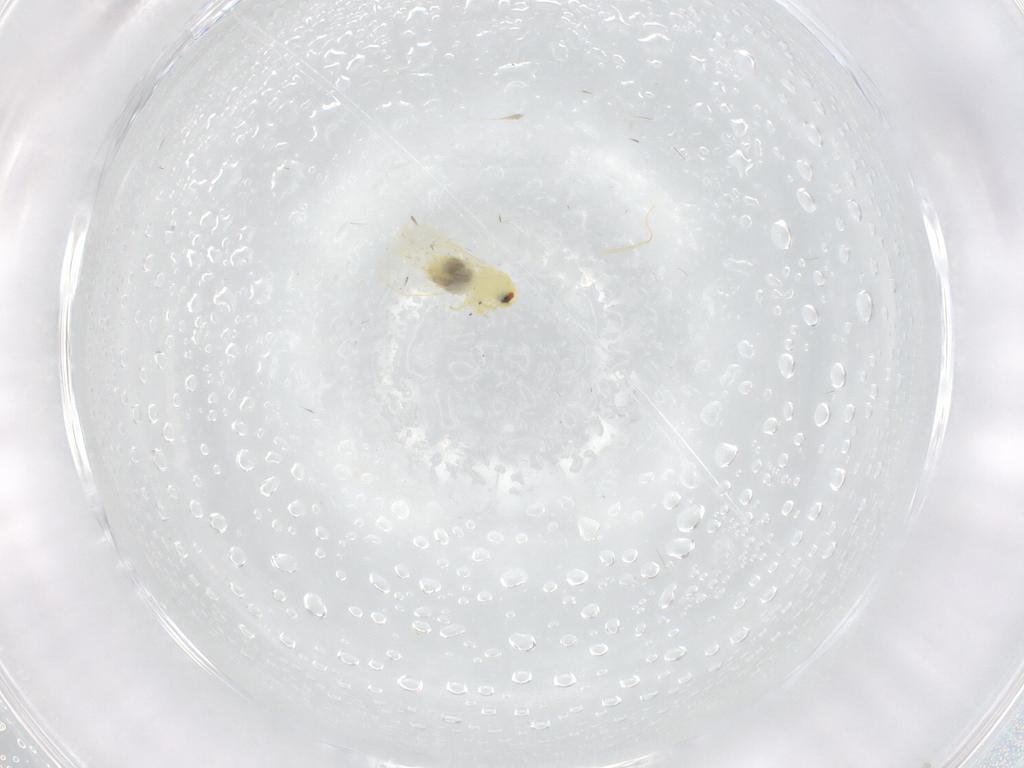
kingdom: Animalia
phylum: Arthropoda
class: Insecta
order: Hemiptera
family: Aleyrodidae
